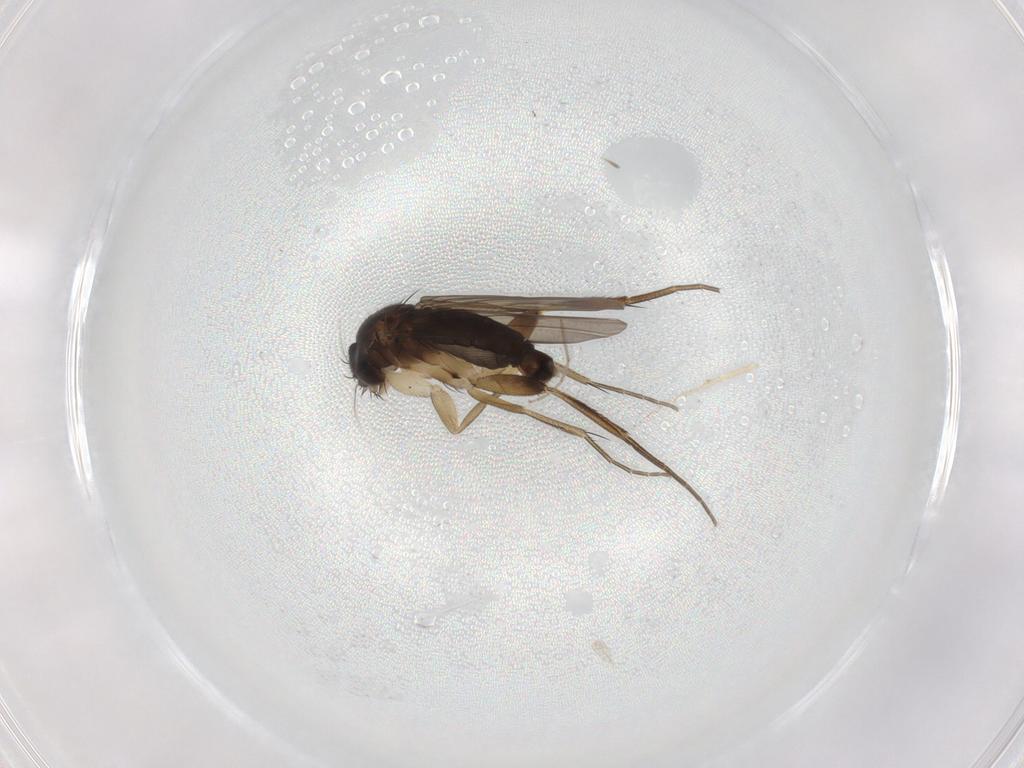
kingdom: Animalia
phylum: Arthropoda
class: Insecta
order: Diptera
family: Phoridae
